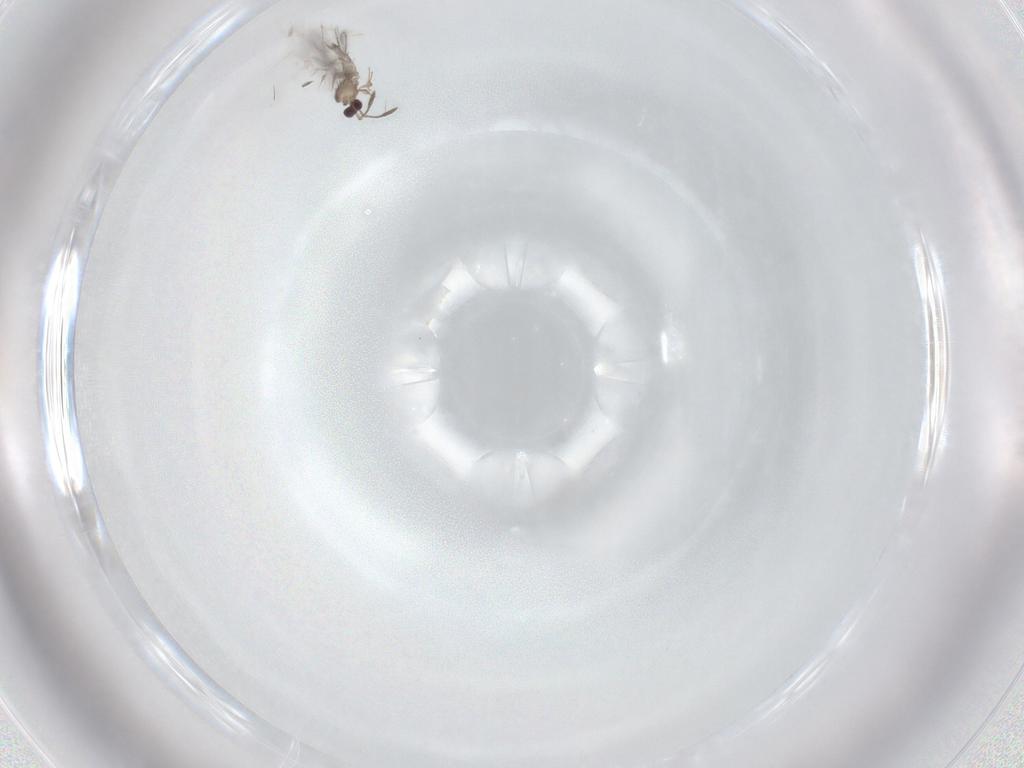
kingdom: Animalia
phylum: Arthropoda
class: Insecta
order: Hymenoptera
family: Mymaridae
